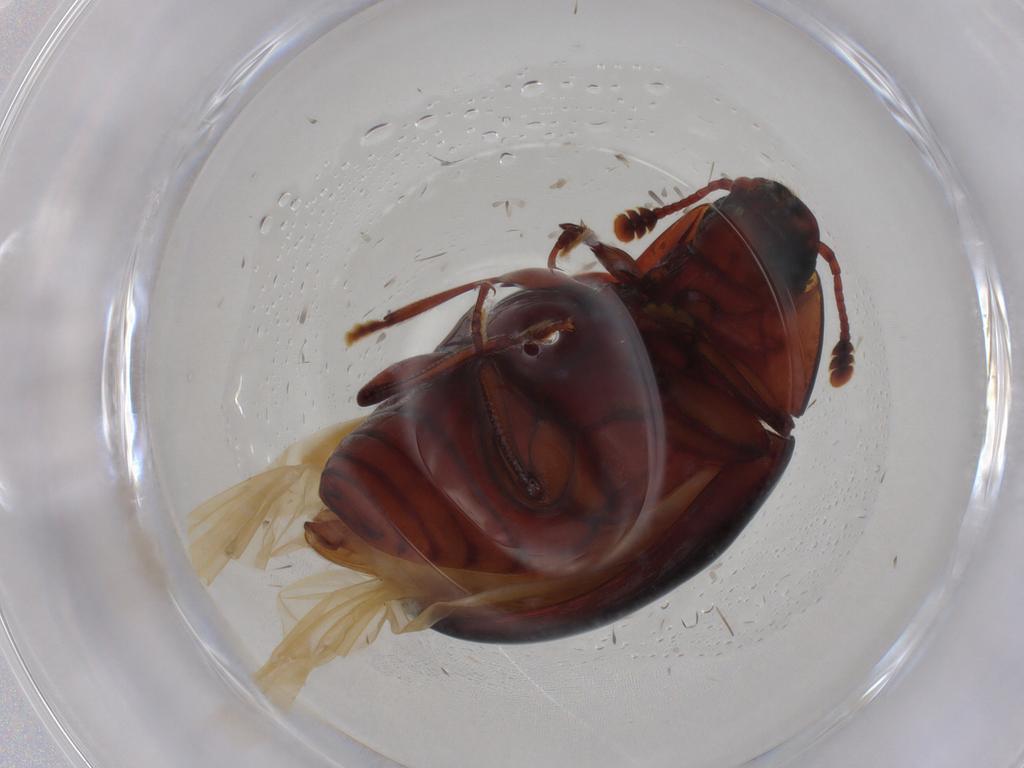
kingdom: Animalia
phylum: Arthropoda
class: Insecta
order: Coleoptera
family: Zopheridae
